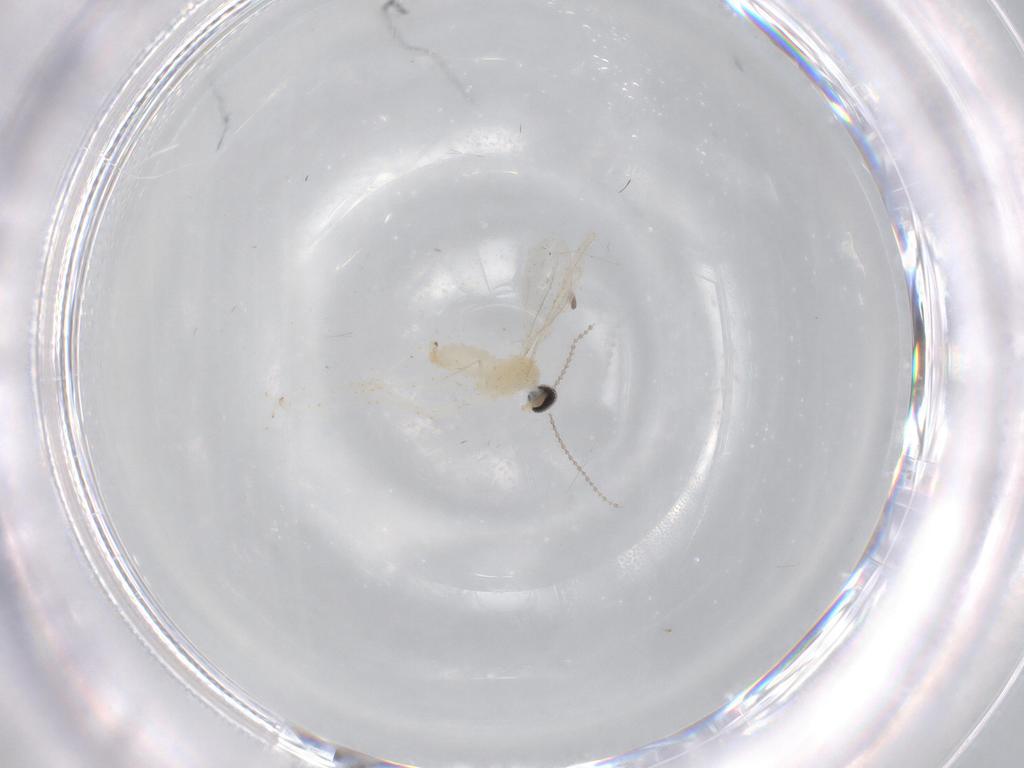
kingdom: Animalia
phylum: Arthropoda
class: Insecta
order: Diptera
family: Cecidomyiidae
